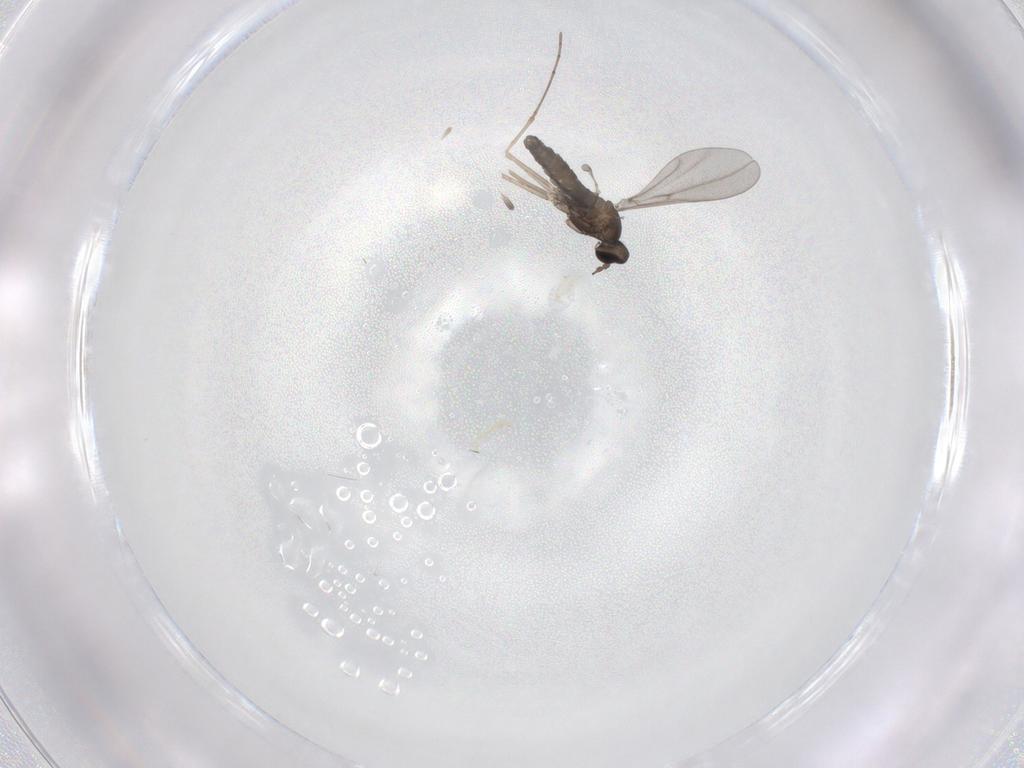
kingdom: Animalia
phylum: Arthropoda
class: Insecta
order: Diptera
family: Cecidomyiidae
